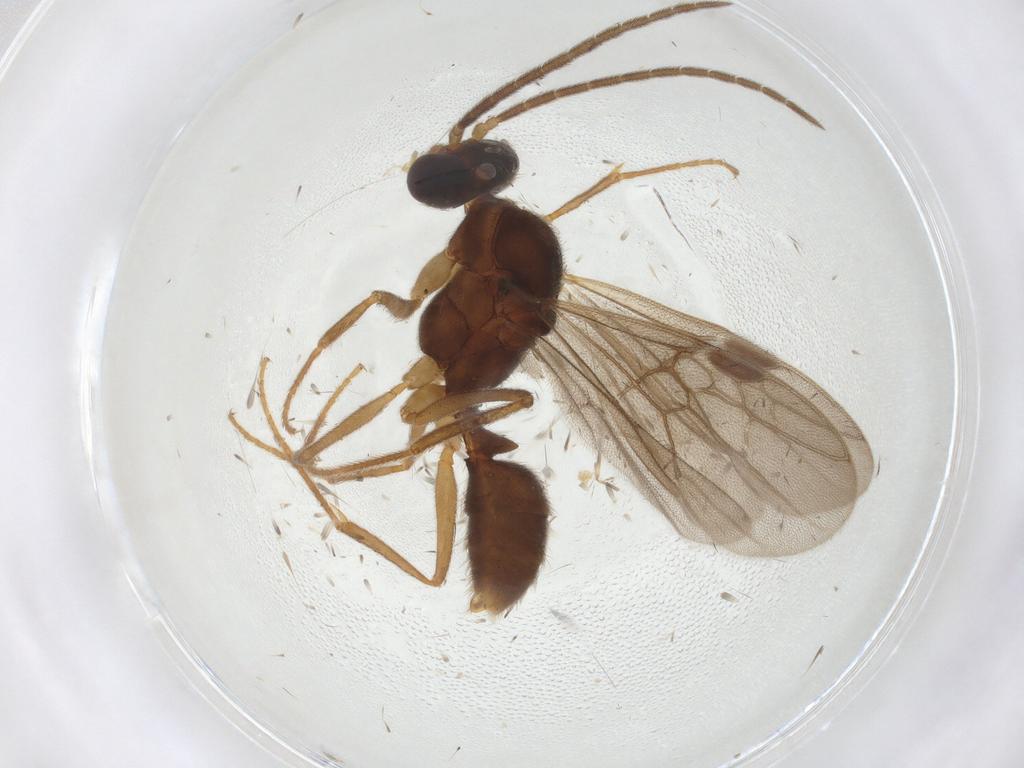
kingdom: Animalia
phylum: Arthropoda
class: Insecta
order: Hymenoptera
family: Formicidae
